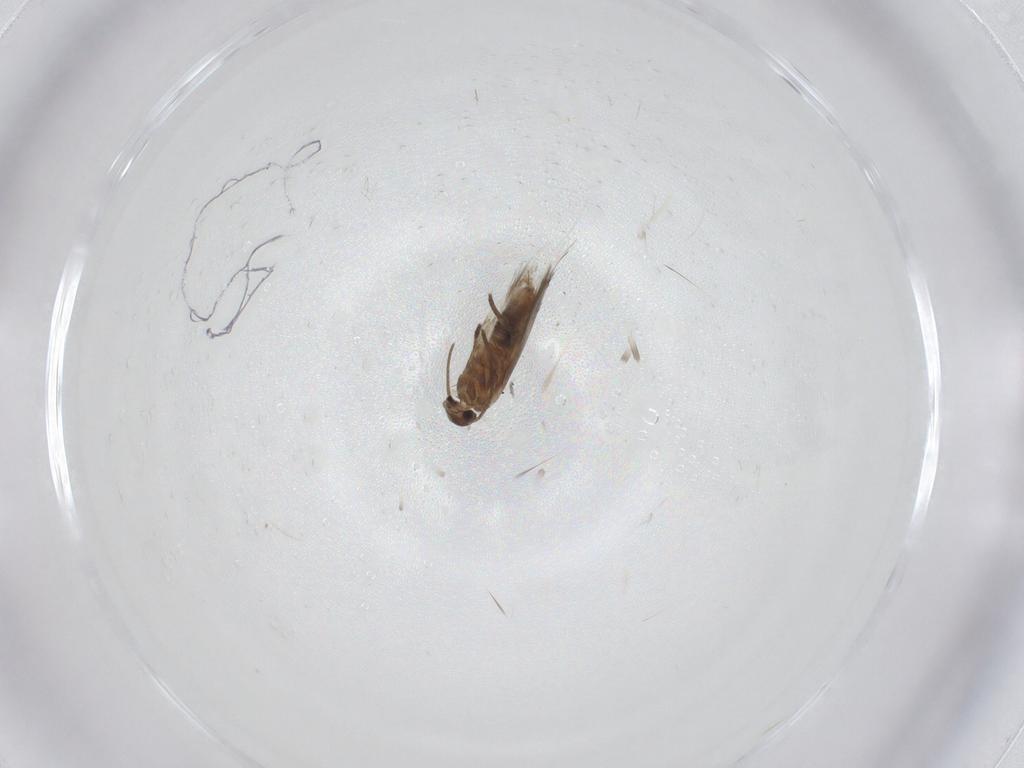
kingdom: Animalia
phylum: Arthropoda
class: Insecta
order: Lepidoptera
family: Heliozelidae
